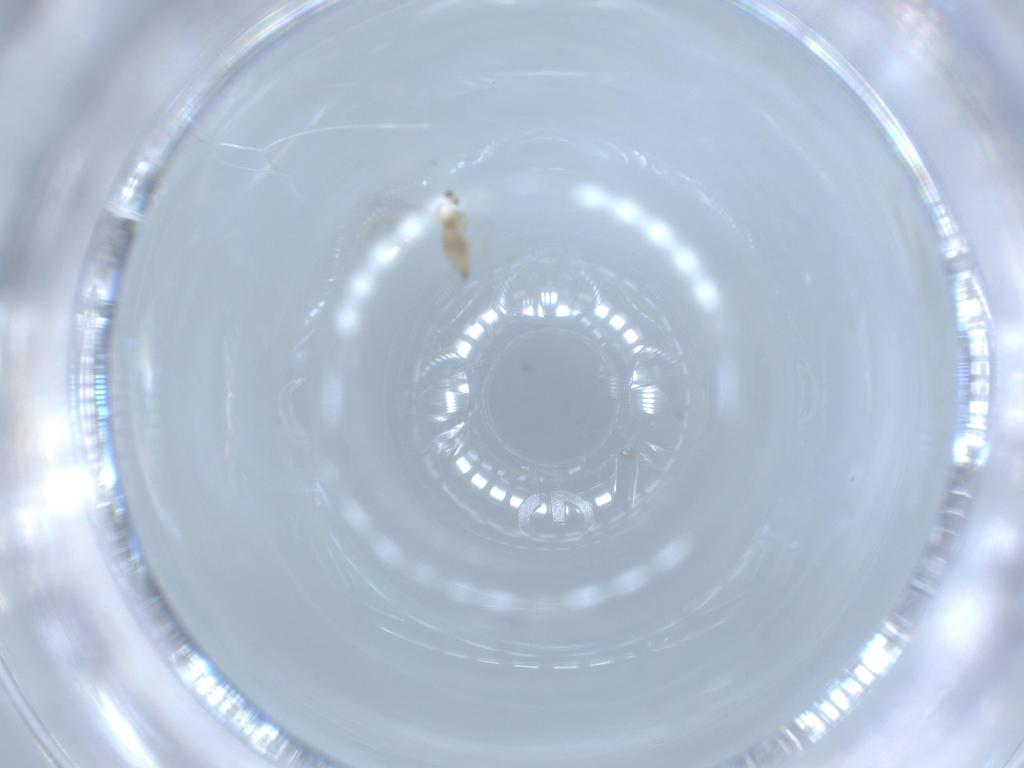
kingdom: Animalia
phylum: Arthropoda
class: Insecta
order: Diptera
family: Cecidomyiidae
